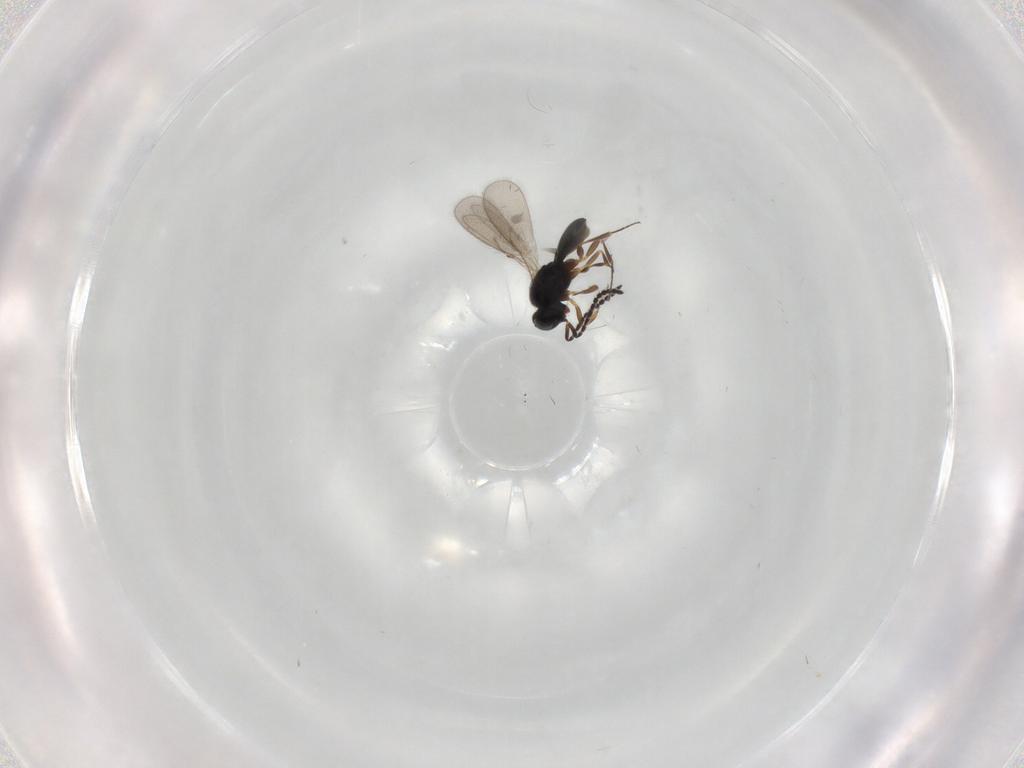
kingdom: Animalia
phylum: Arthropoda
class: Insecta
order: Hymenoptera
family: Scelionidae
